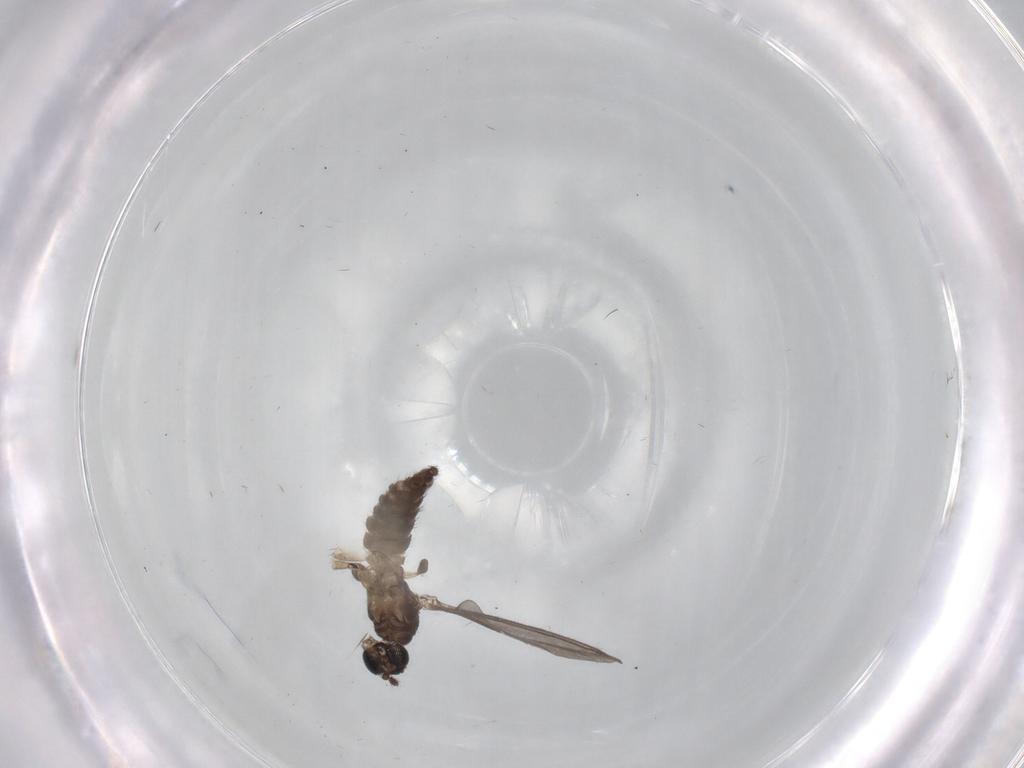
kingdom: Animalia
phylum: Arthropoda
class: Insecta
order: Diptera
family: Sciaridae
